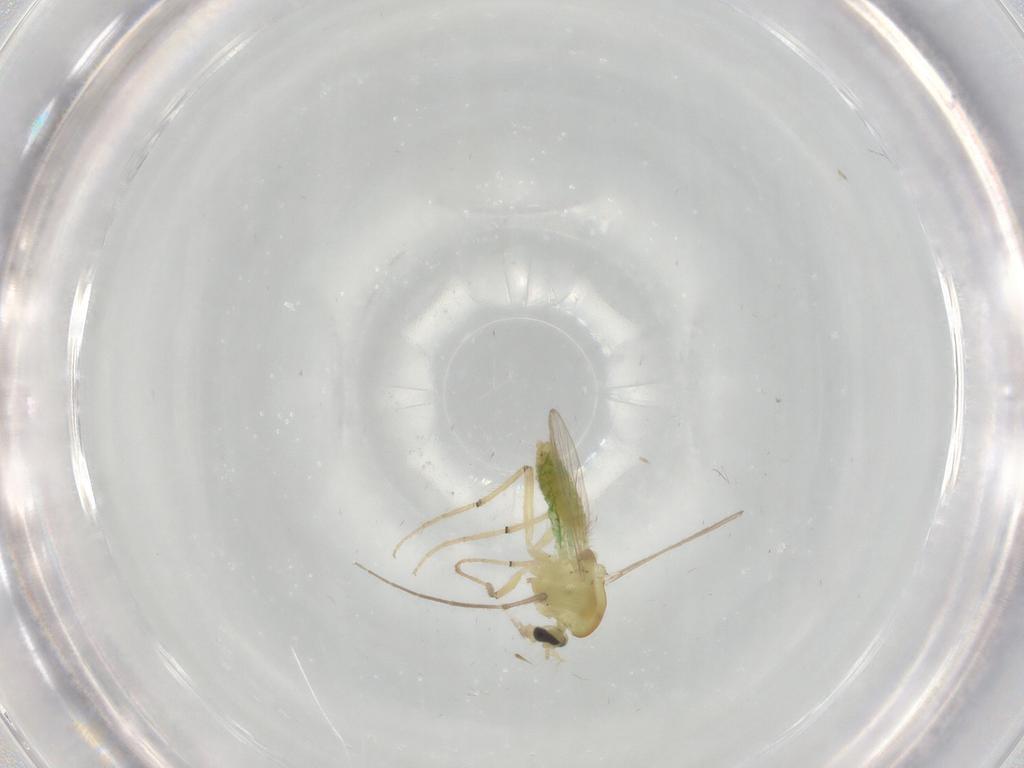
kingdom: Animalia
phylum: Arthropoda
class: Insecta
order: Diptera
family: Chironomidae
